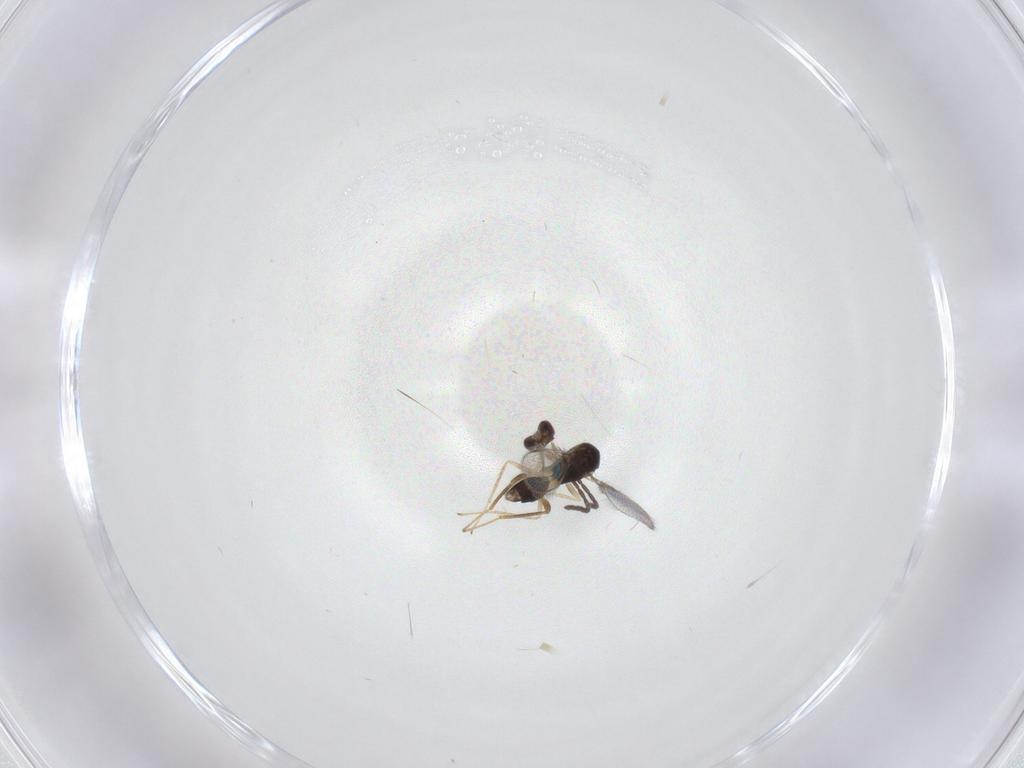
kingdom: Animalia
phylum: Arthropoda
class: Insecta
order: Hymenoptera
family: Mymaridae
